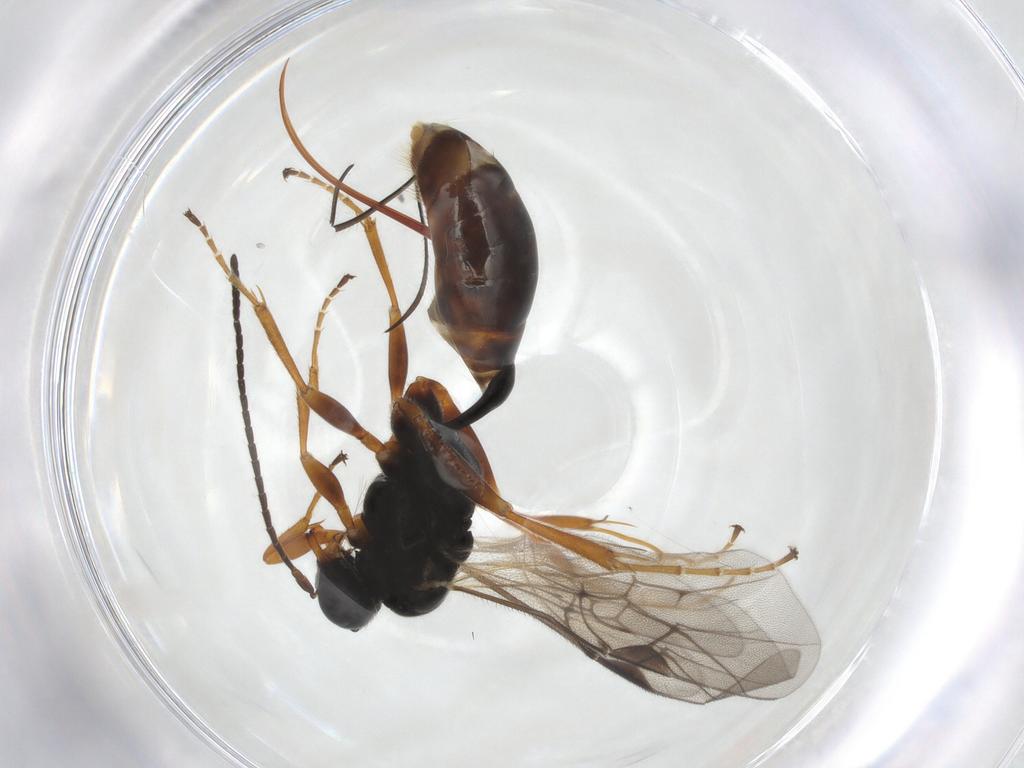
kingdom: Animalia
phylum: Arthropoda
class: Insecta
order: Hymenoptera
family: Ichneumonidae
